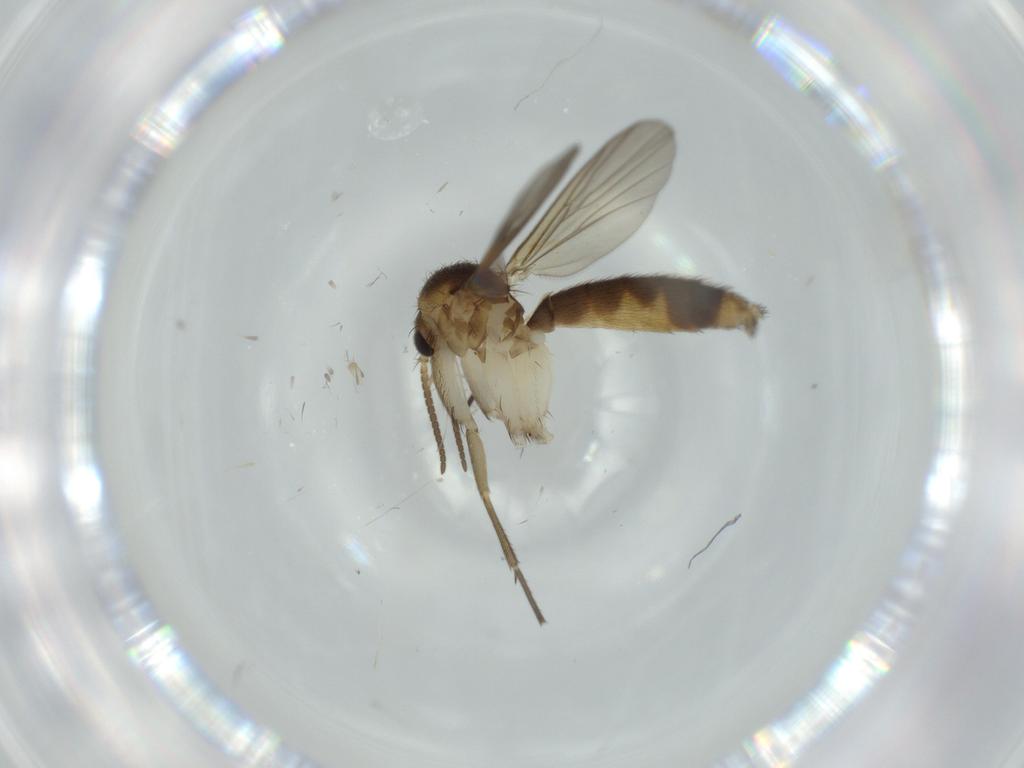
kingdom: Animalia
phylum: Arthropoda
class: Insecta
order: Diptera
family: Mycetophilidae
